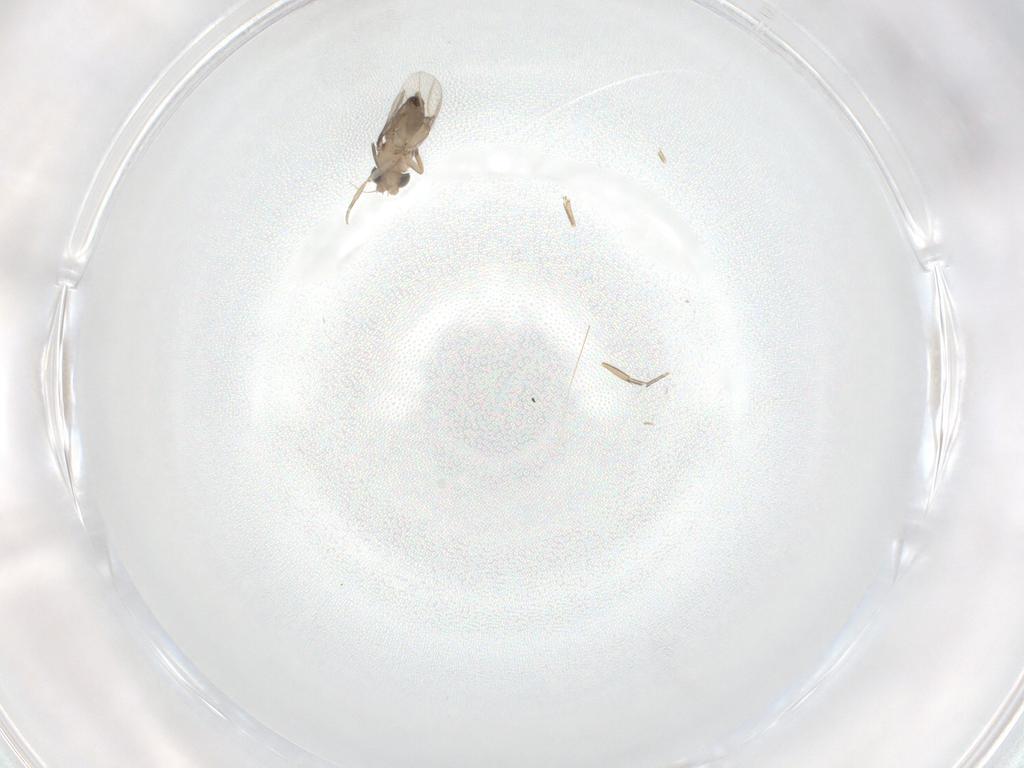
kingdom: Animalia
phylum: Arthropoda
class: Insecta
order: Diptera
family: Phoridae
